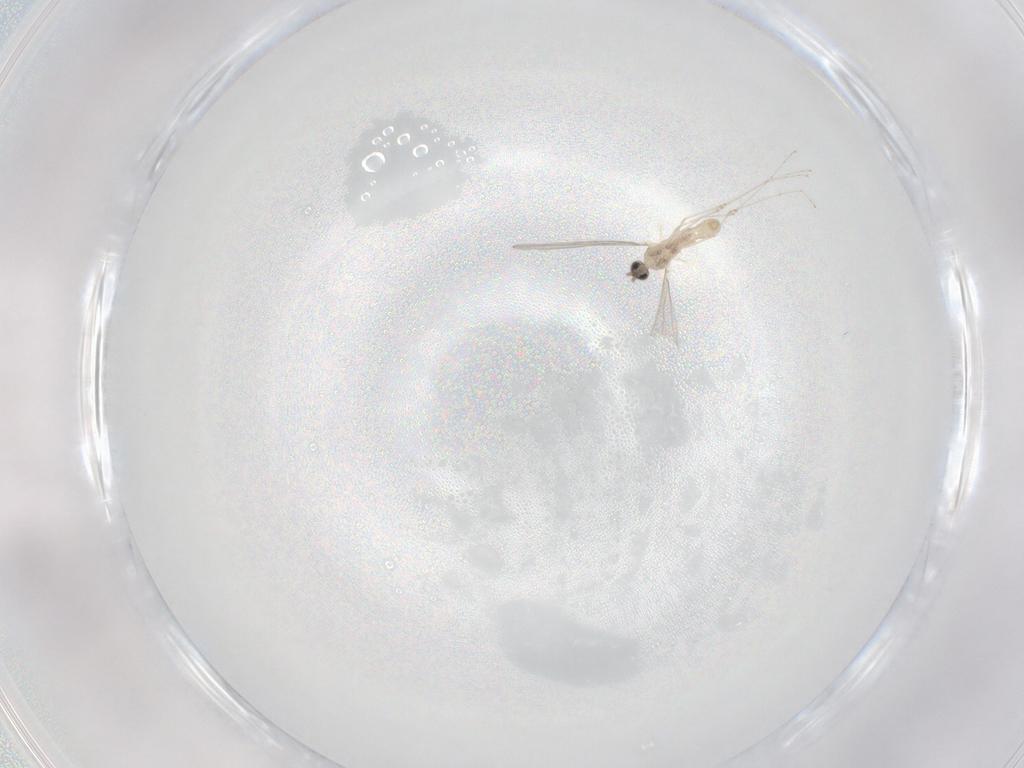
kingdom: Animalia
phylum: Arthropoda
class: Insecta
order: Diptera
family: Cecidomyiidae
